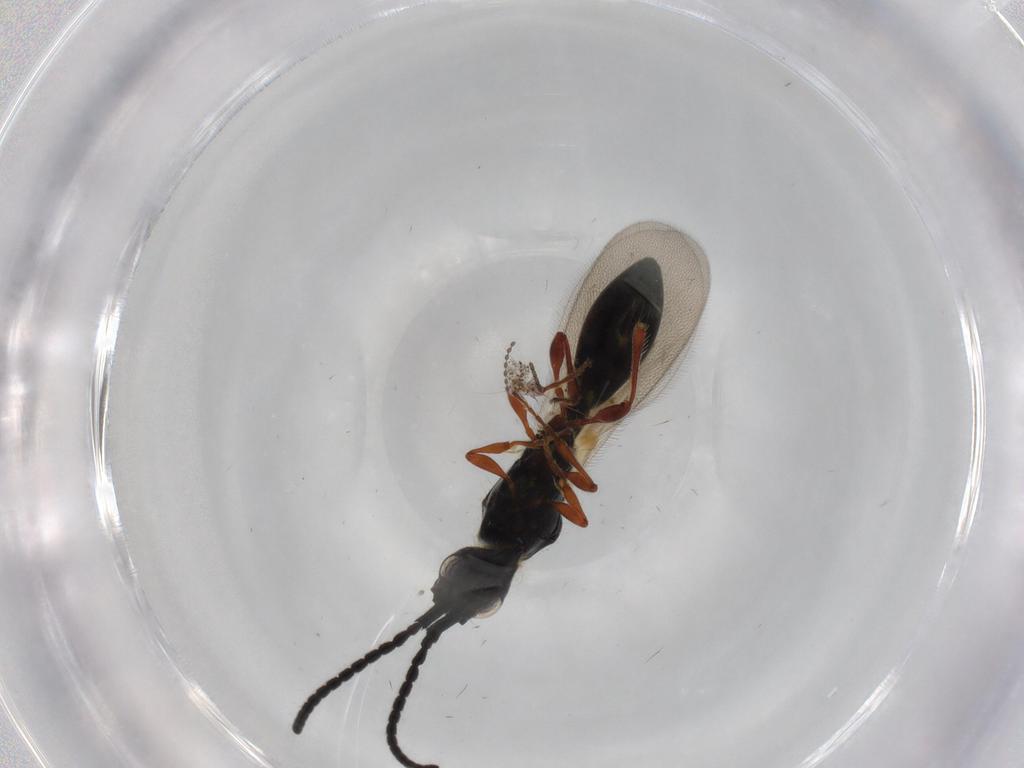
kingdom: Animalia
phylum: Arthropoda
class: Insecta
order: Hymenoptera
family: Diapriidae
